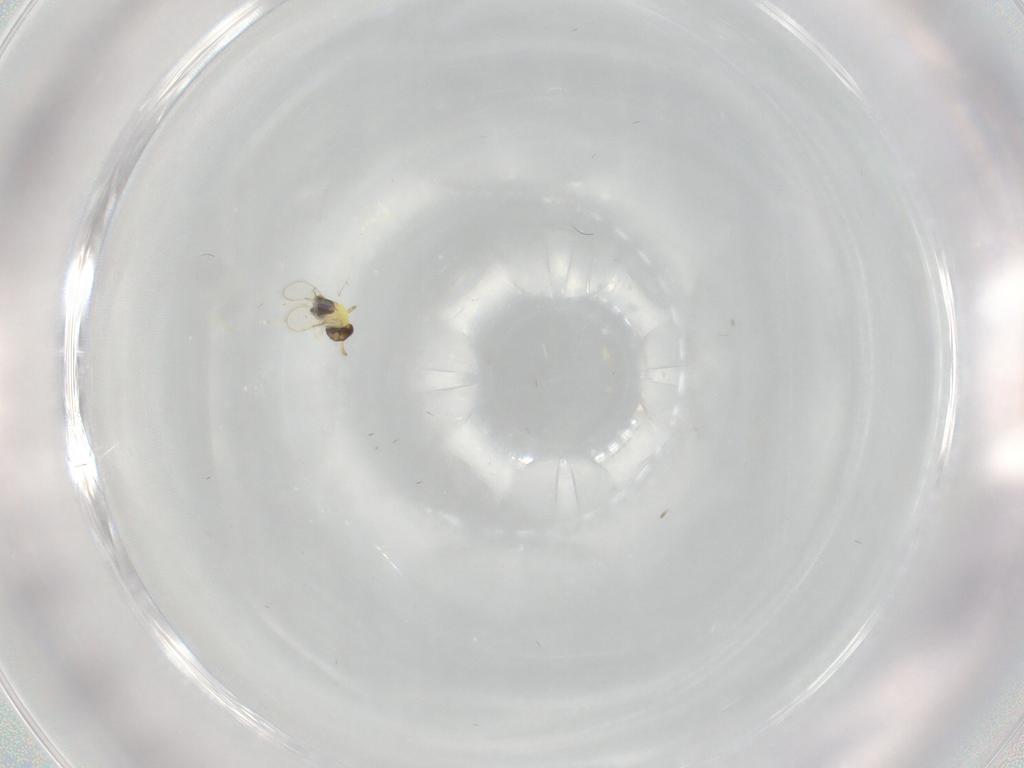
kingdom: Animalia
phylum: Arthropoda
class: Insecta
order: Hymenoptera
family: Aphelinidae
